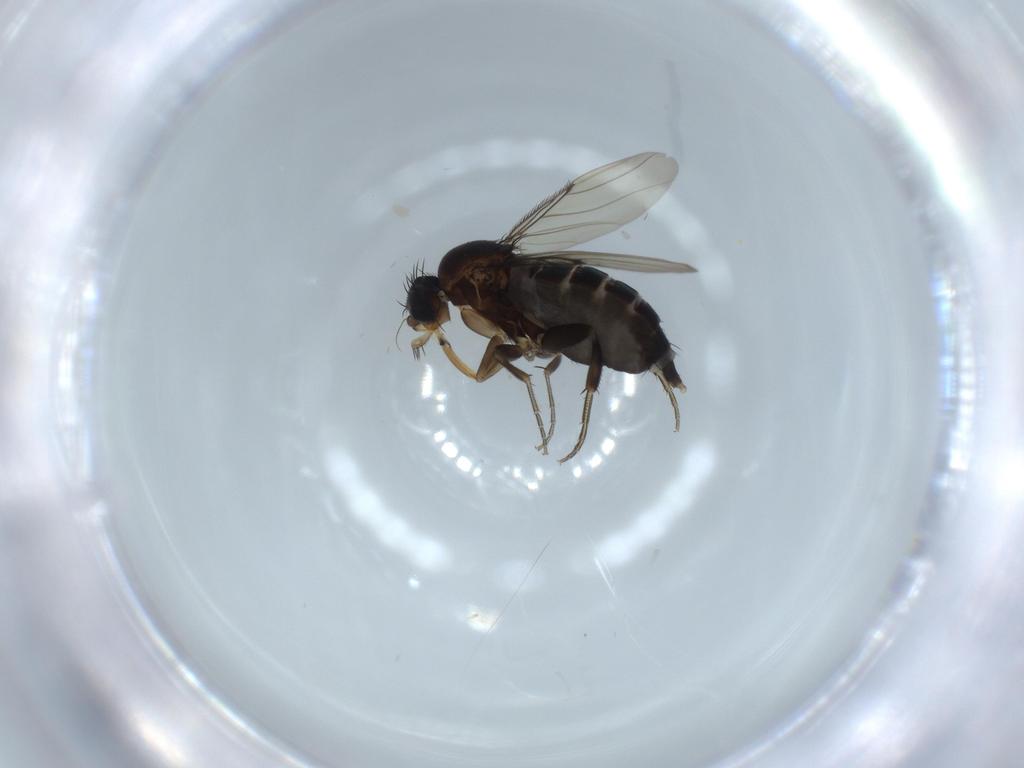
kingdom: Animalia
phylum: Arthropoda
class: Insecta
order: Diptera
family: Phoridae
